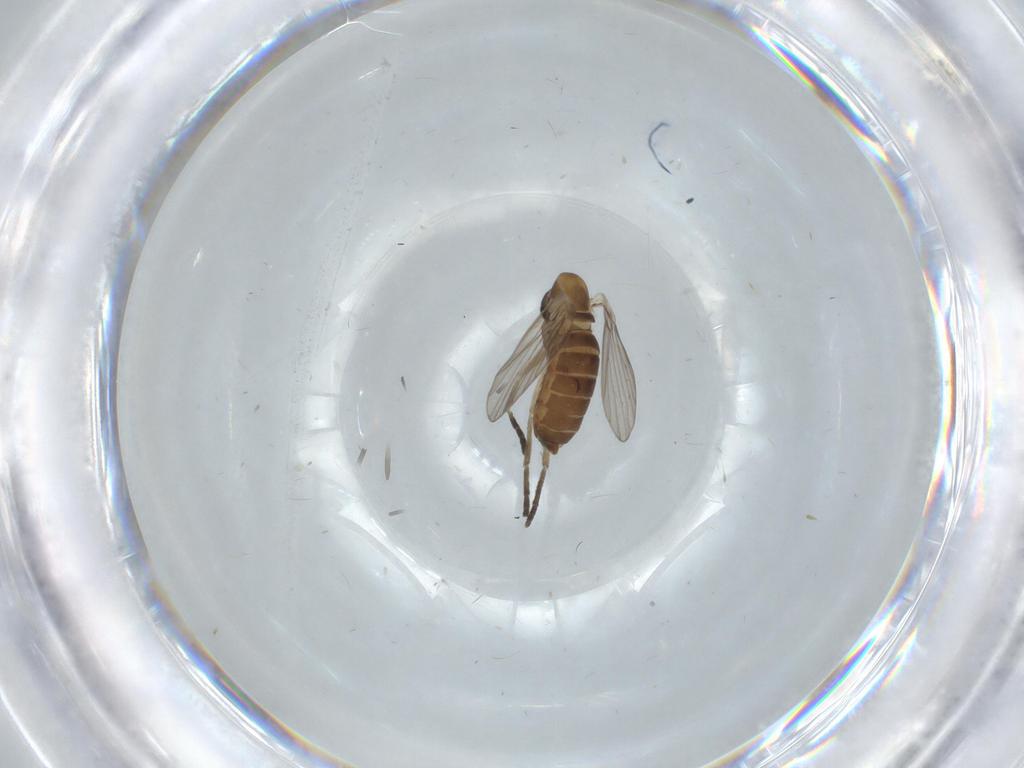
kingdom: Animalia
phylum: Arthropoda
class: Insecta
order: Diptera
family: Psychodidae
